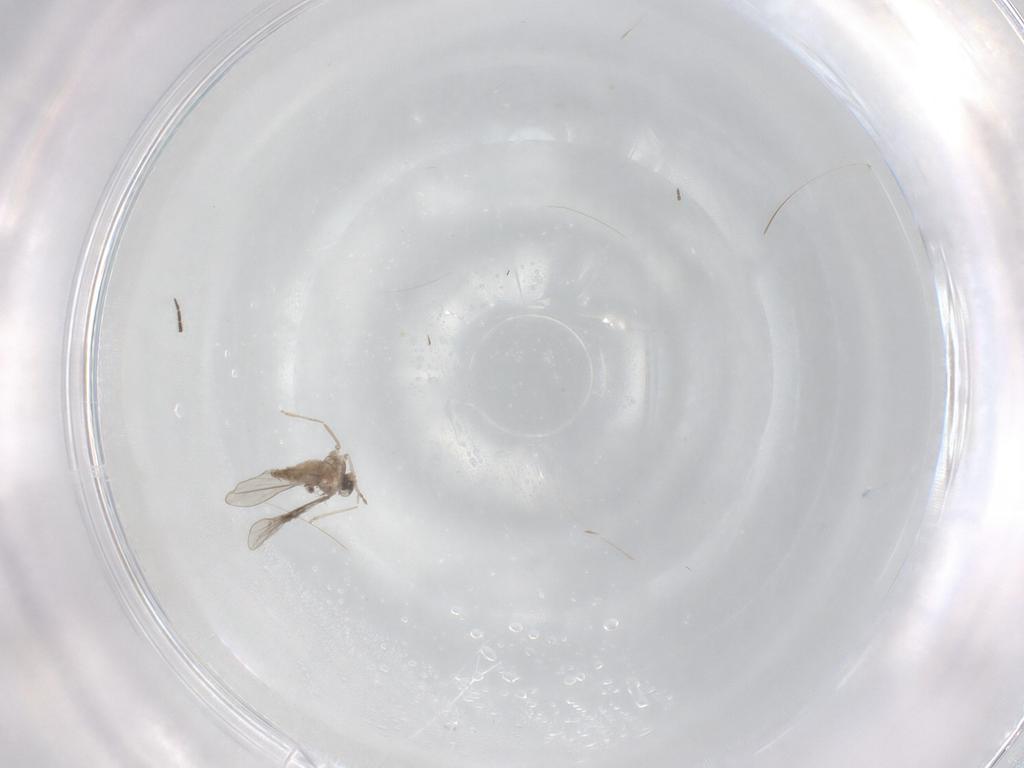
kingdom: Animalia
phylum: Arthropoda
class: Insecta
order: Diptera
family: Cecidomyiidae
